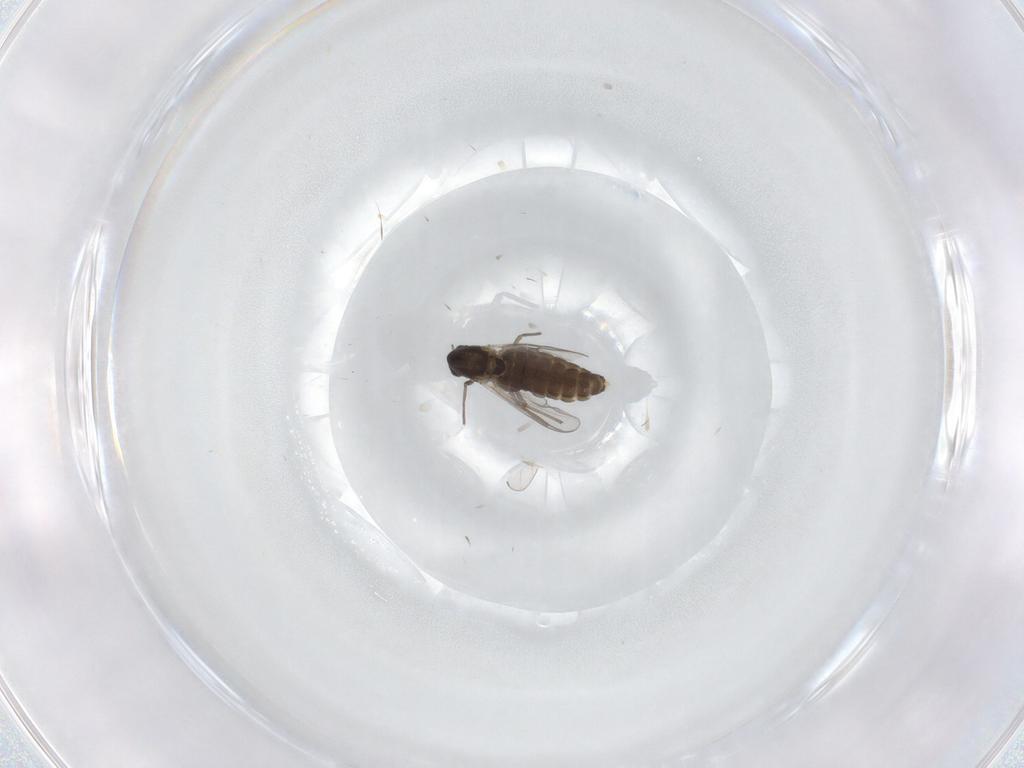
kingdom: Animalia
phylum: Arthropoda
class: Insecta
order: Diptera
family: Chironomidae
